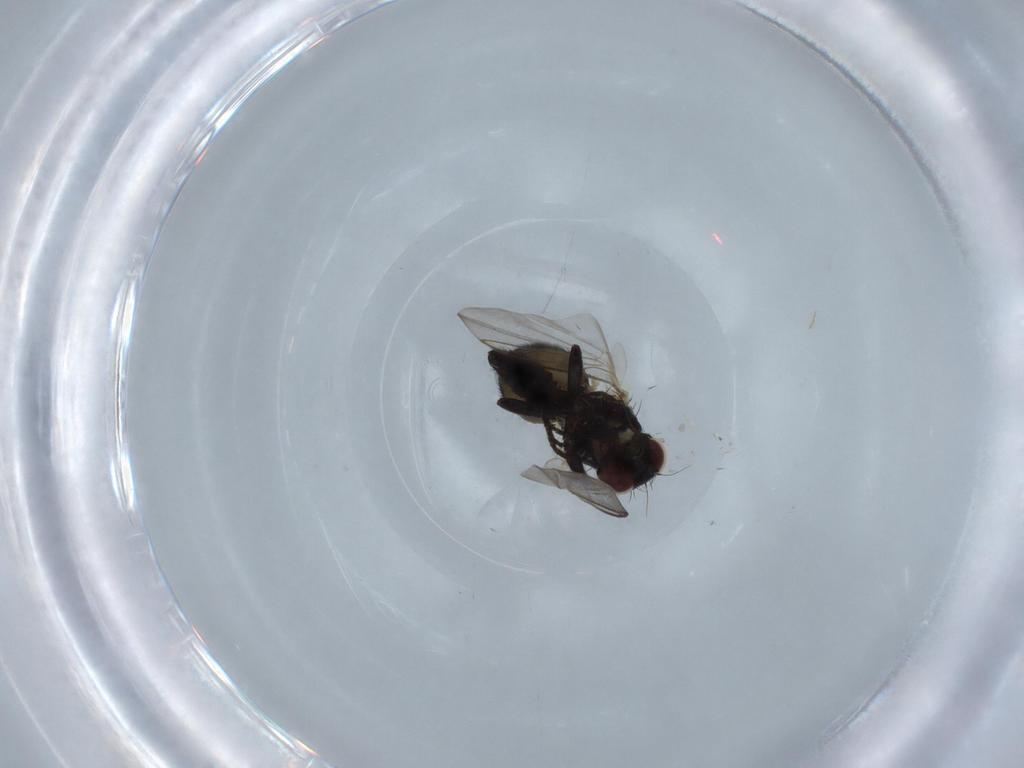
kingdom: Animalia
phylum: Arthropoda
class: Insecta
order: Diptera
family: Agromyzidae
